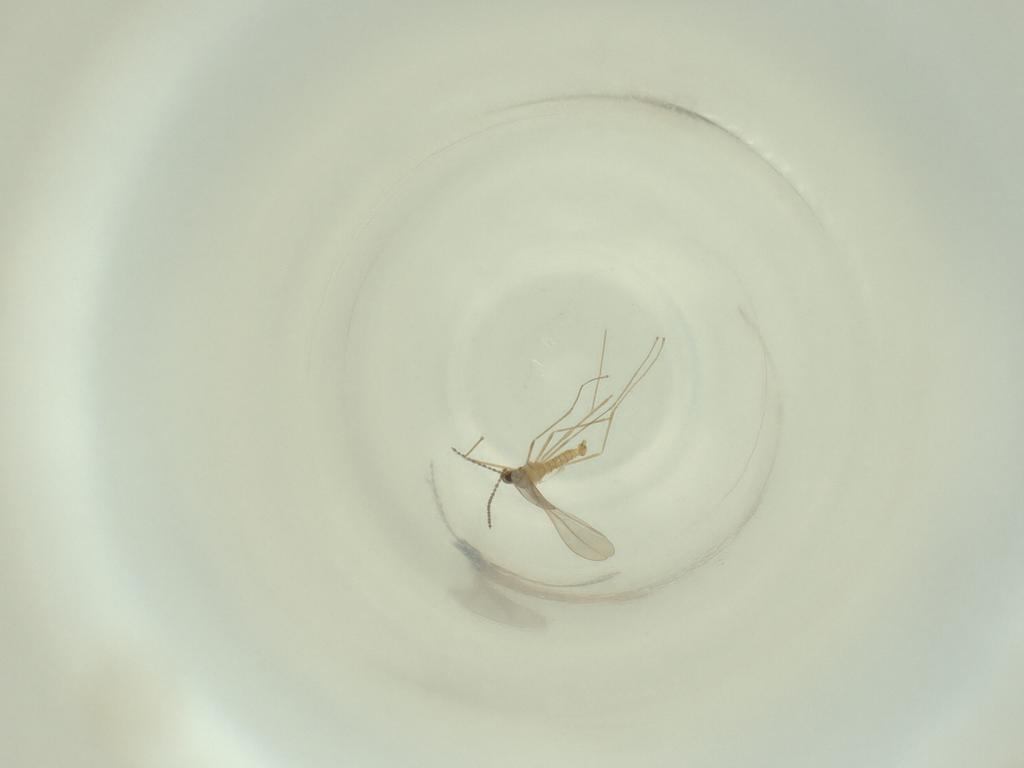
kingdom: Animalia
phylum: Arthropoda
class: Insecta
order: Diptera
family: Cecidomyiidae
